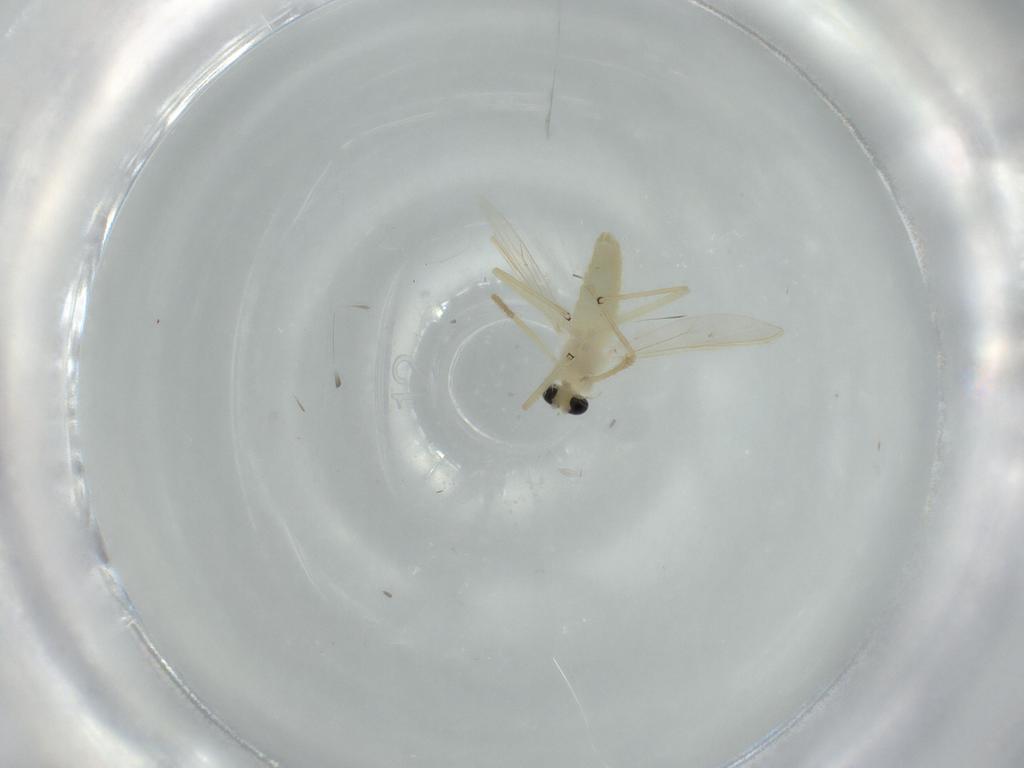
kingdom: Animalia
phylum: Arthropoda
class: Insecta
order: Diptera
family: Chironomidae
